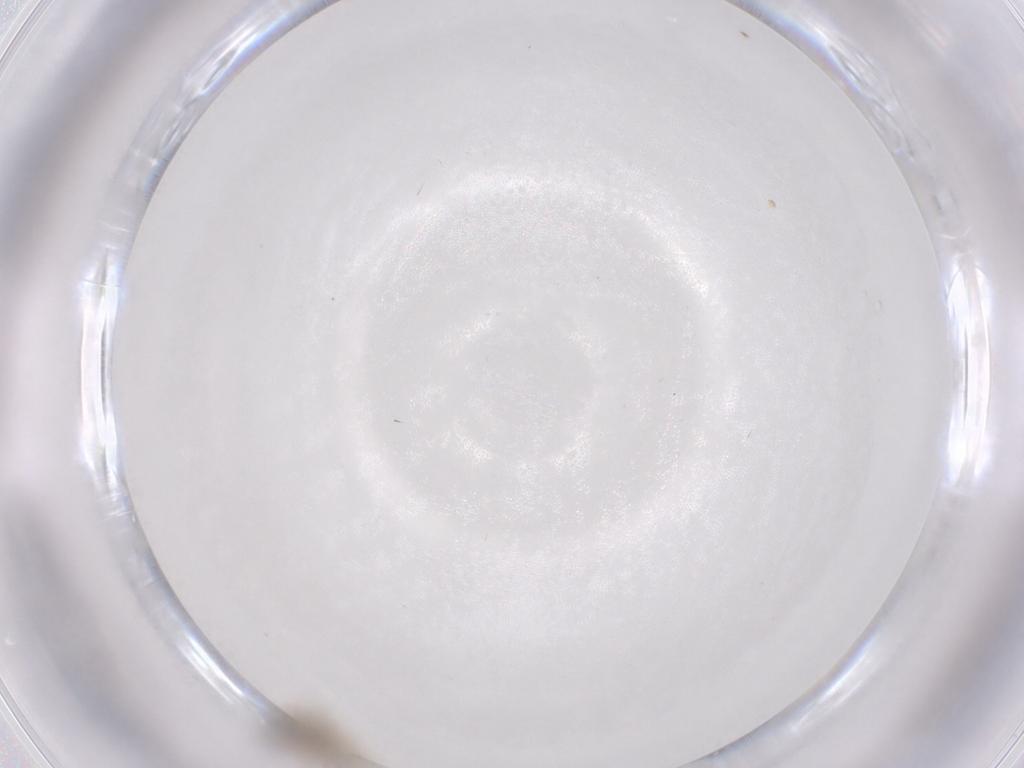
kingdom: Animalia
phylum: Arthropoda
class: Insecta
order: Diptera
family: Cecidomyiidae
